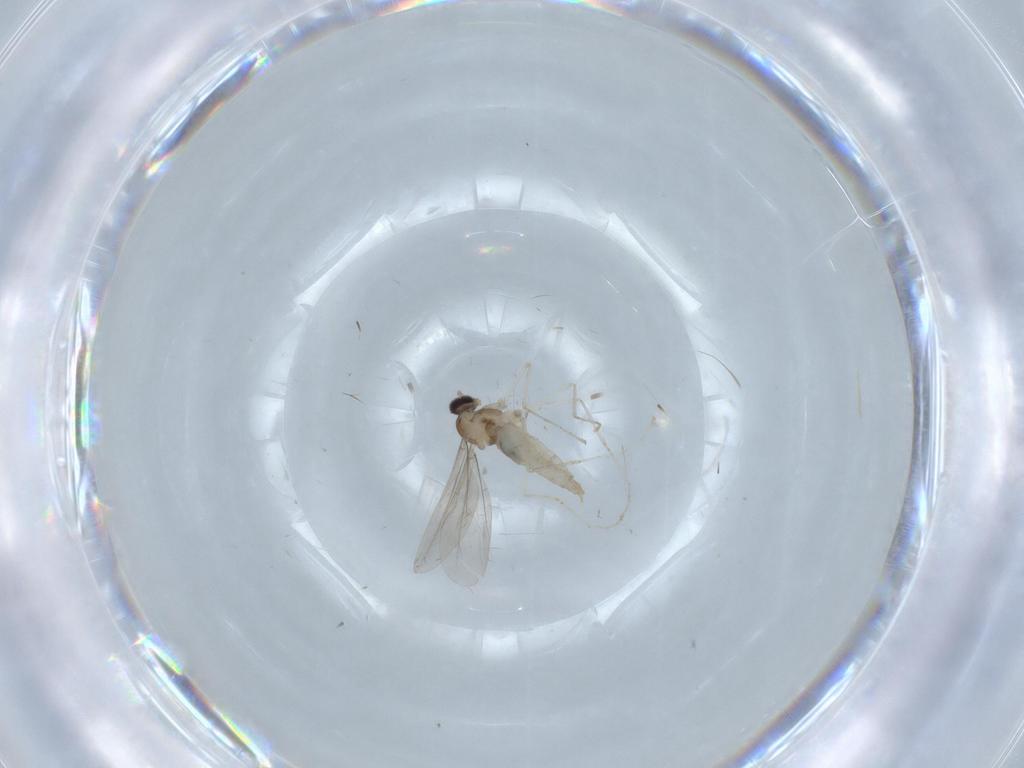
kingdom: Animalia
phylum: Arthropoda
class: Insecta
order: Diptera
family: Cecidomyiidae
